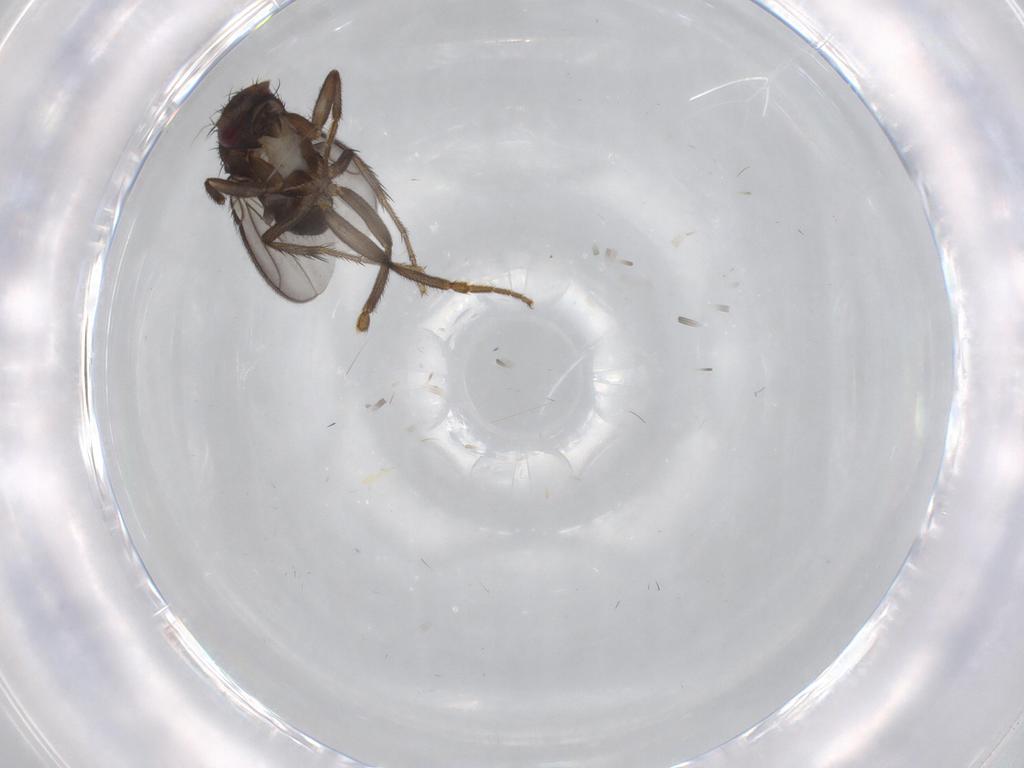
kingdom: Animalia
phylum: Arthropoda
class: Insecta
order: Diptera
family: Sphaeroceridae
